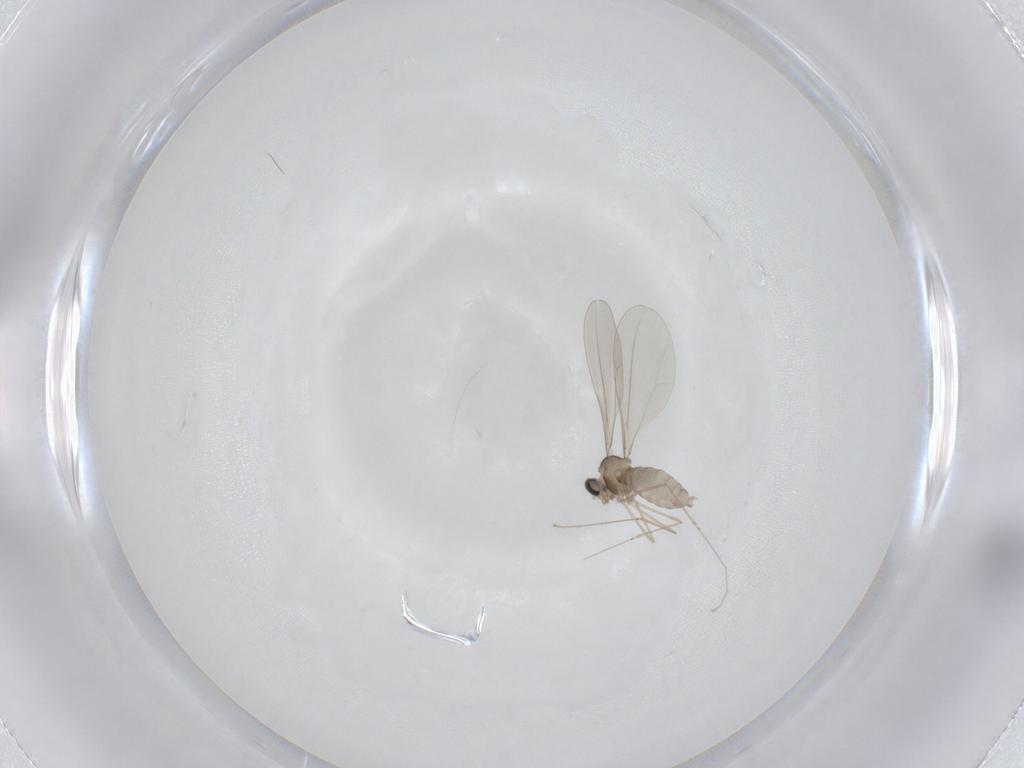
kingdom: Animalia
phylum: Arthropoda
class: Insecta
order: Diptera
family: Cecidomyiidae
